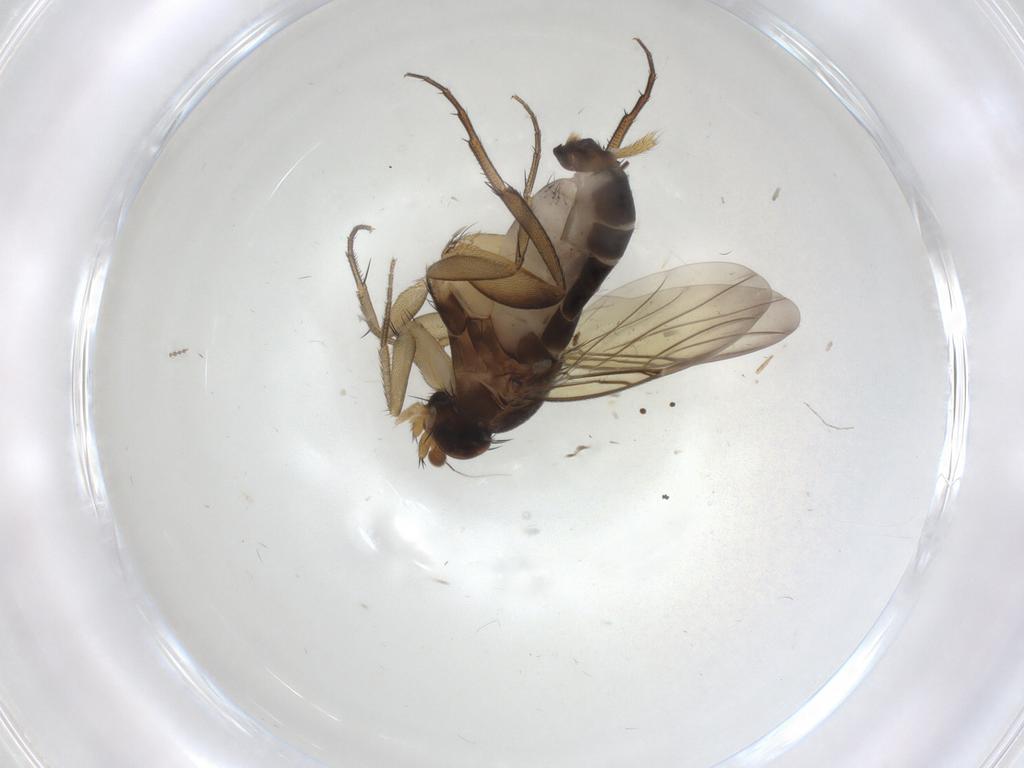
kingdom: Animalia
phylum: Arthropoda
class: Insecta
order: Diptera
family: Phoridae
